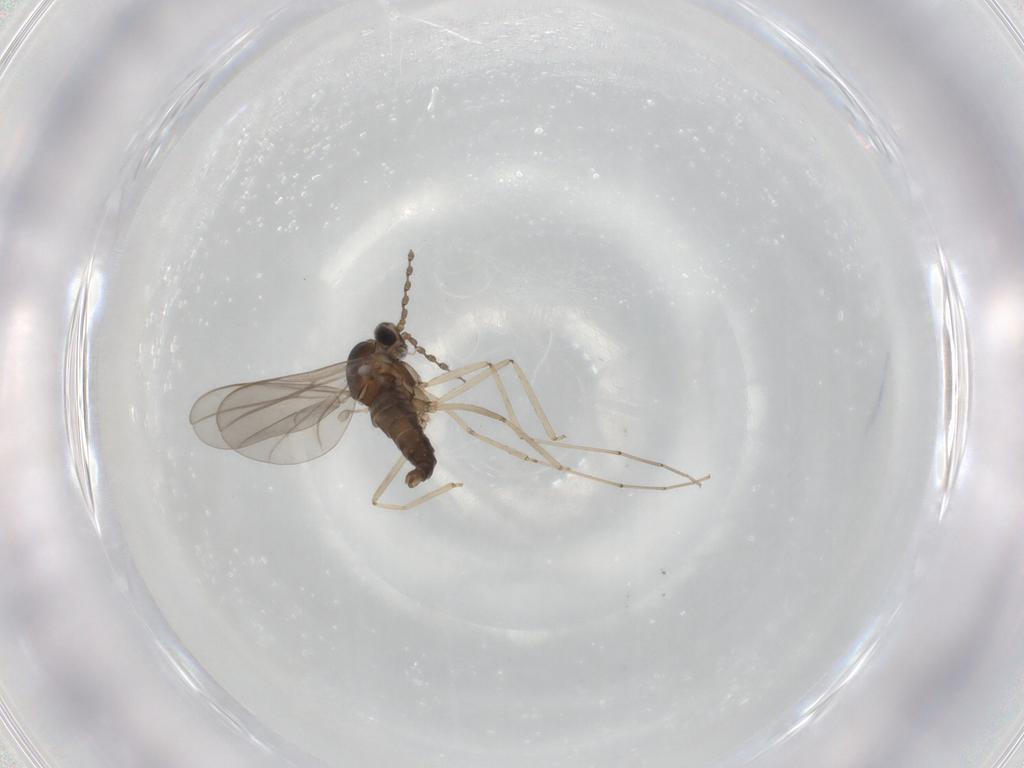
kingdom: Animalia
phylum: Arthropoda
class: Insecta
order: Diptera
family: Cecidomyiidae
